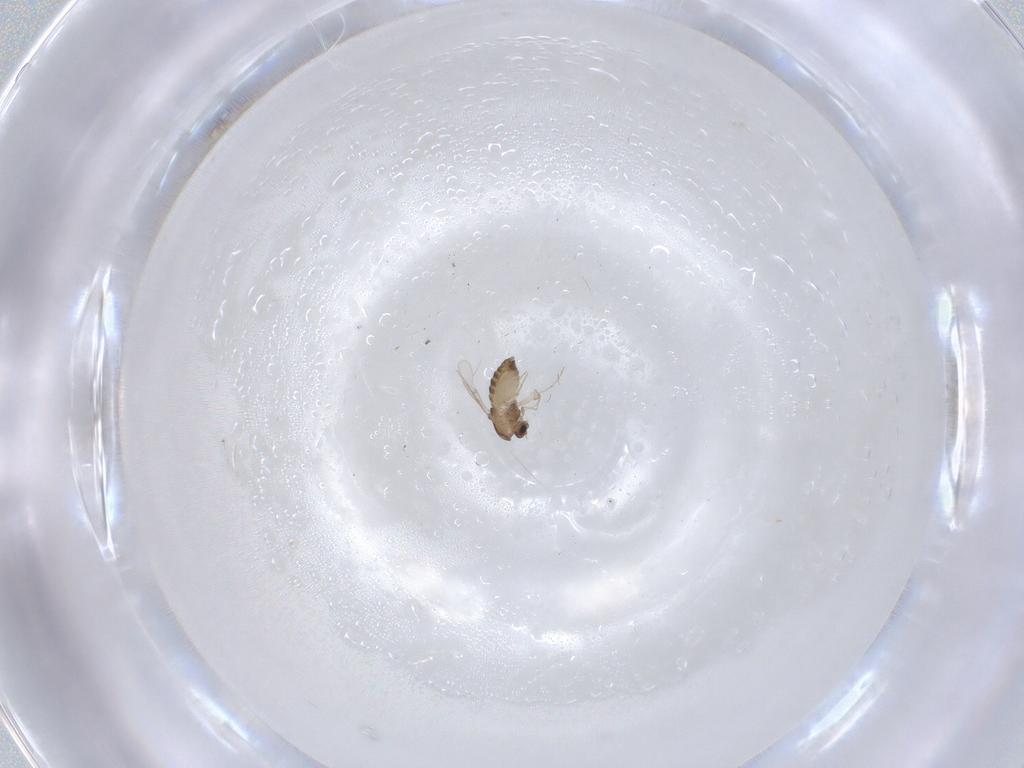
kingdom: Animalia
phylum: Arthropoda
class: Insecta
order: Diptera
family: Chironomidae
